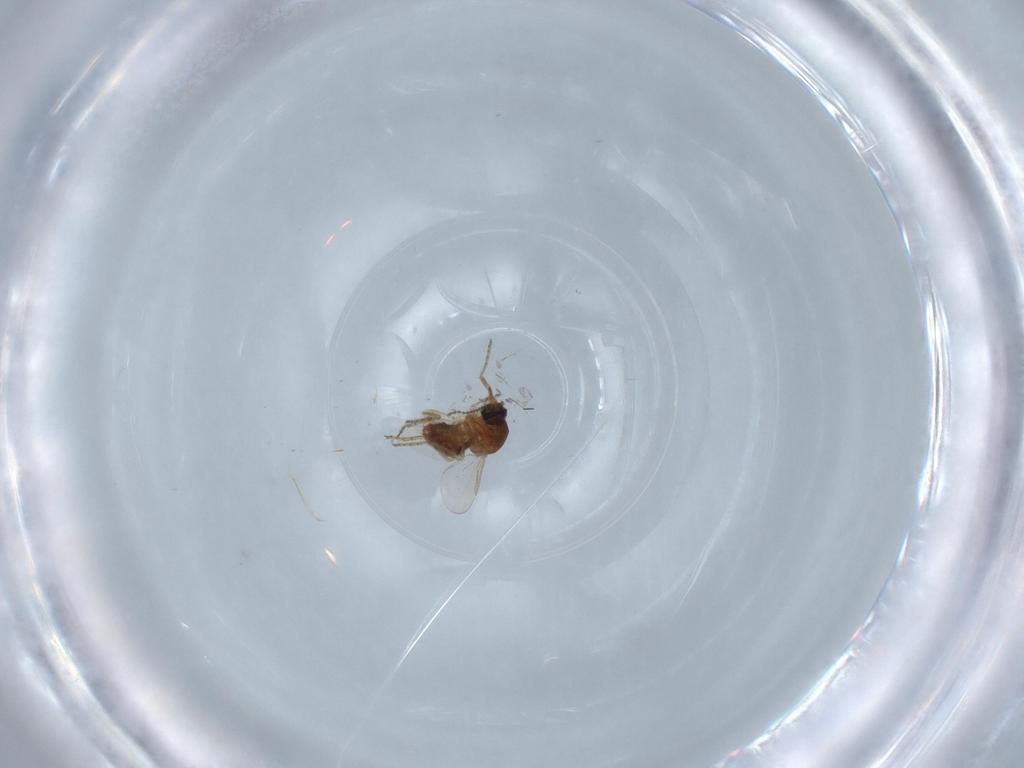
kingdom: Animalia
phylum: Arthropoda
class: Insecta
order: Diptera
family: Ceratopogonidae
